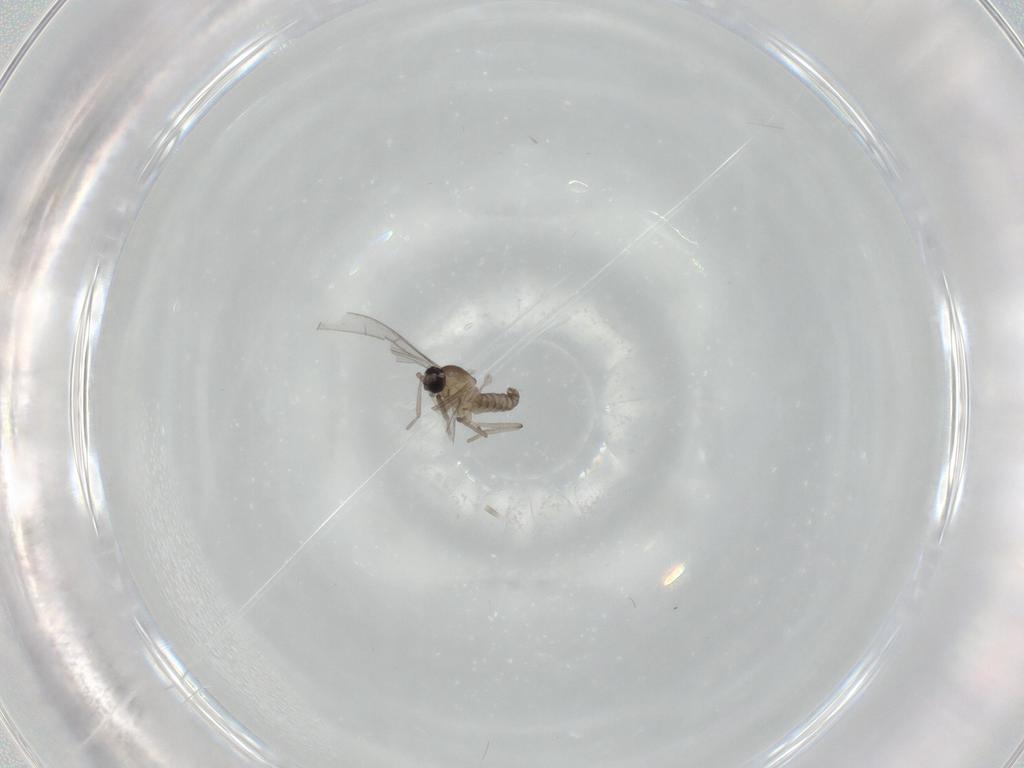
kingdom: Animalia
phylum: Arthropoda
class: Insecta
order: Diptera
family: Cecidomyiidae
